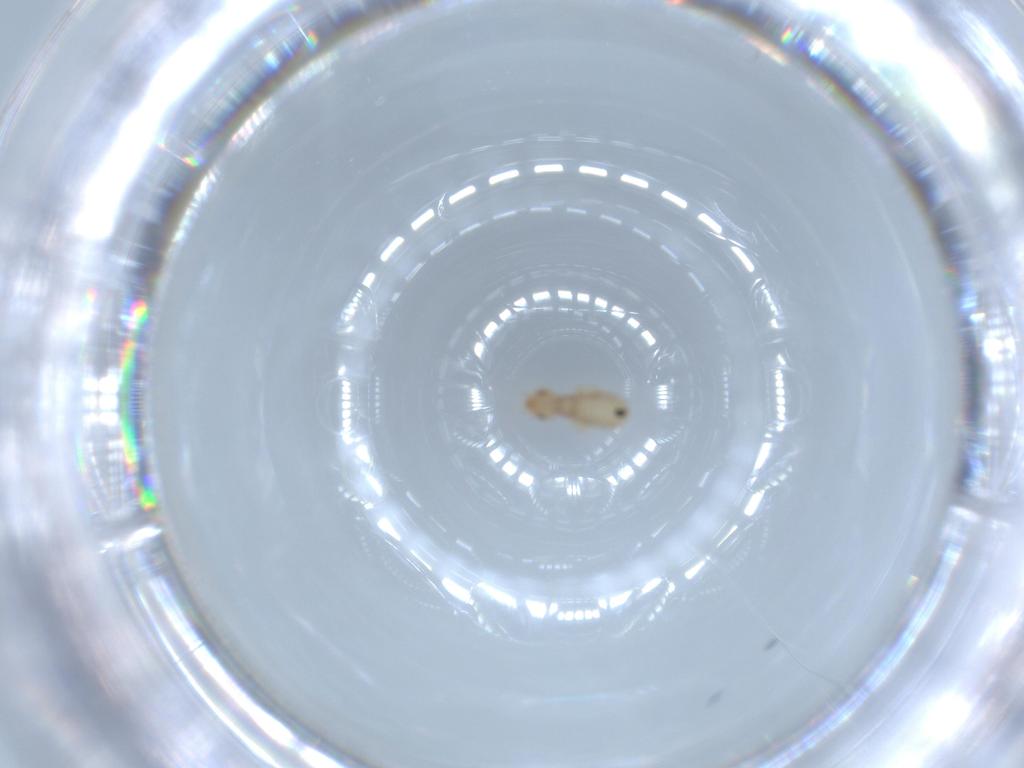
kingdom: Animalia
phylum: Arthropoda
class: Insecta
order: Psocodea
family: Liposcelididae
